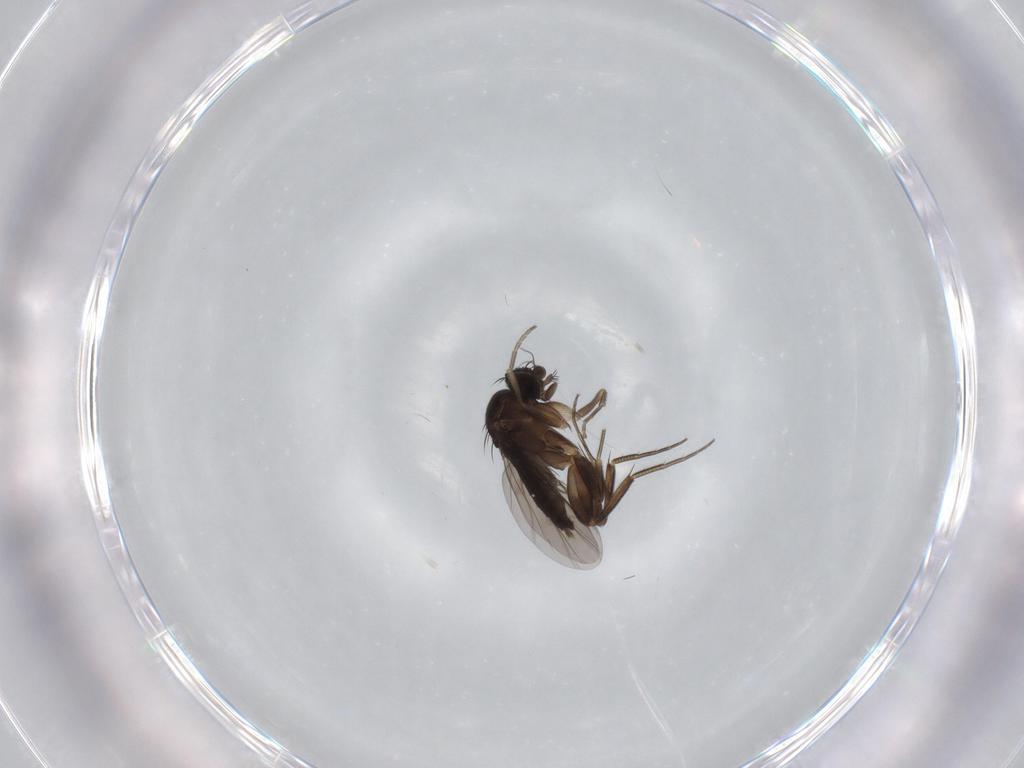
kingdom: Animalia
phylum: Arthropoda
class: Insecta
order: Diptera
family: Phoridae
